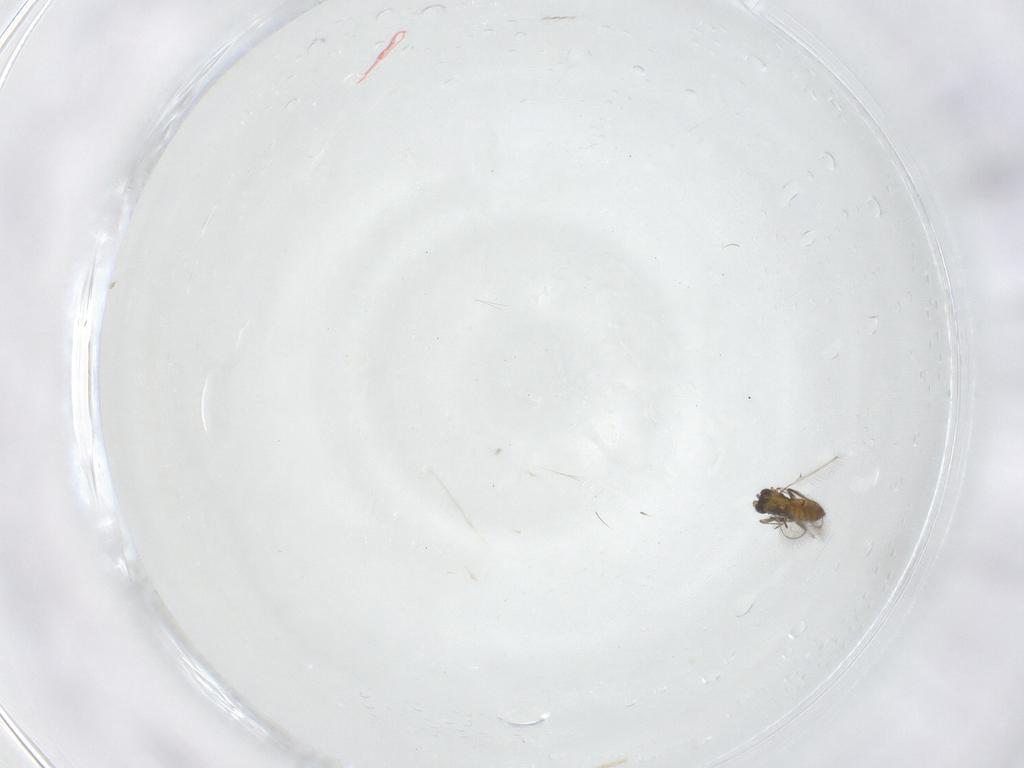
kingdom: Animalia
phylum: Arthropoda
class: Insecta
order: Hymenoptera
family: Trichogrammatidae
